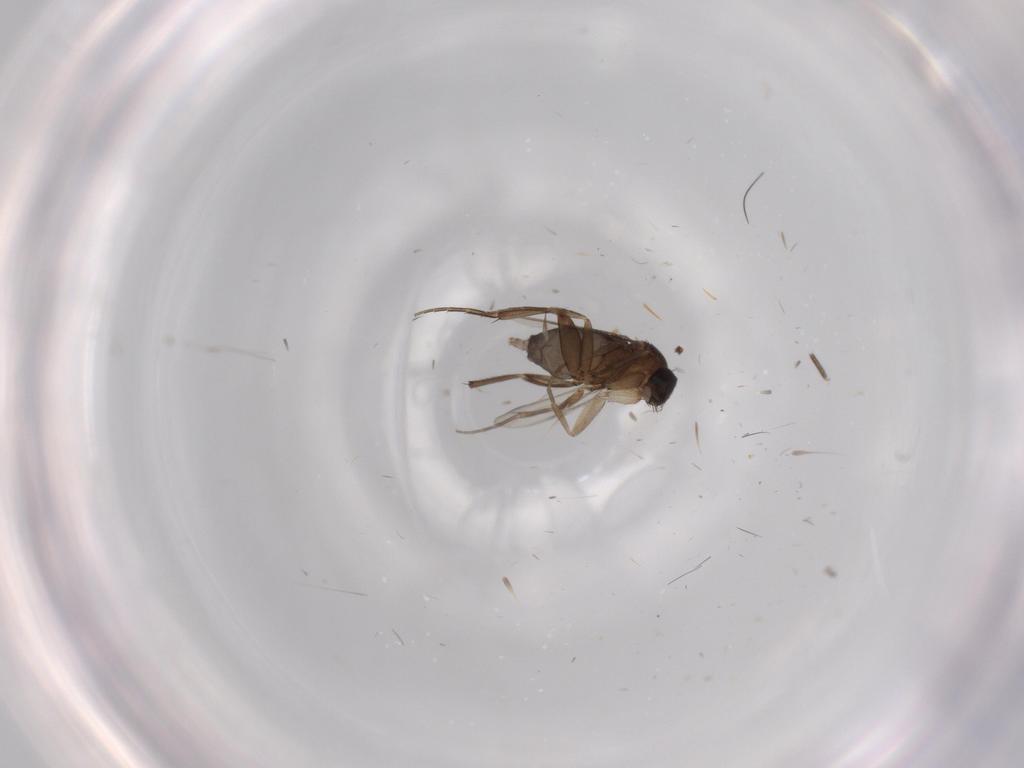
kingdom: Animalia
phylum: Arthropoda
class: Insecta
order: Diptera
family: Phoridae
